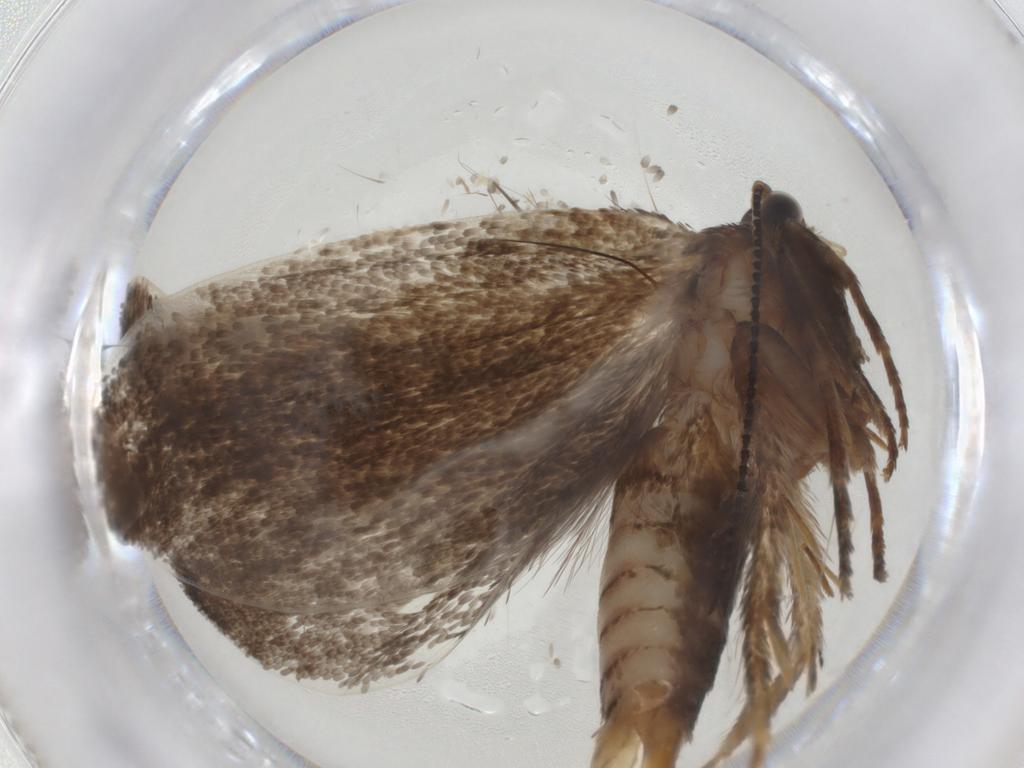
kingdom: Animalia
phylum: Arthropoda
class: Insecta
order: Lepidoptera
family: Eriocottidae
